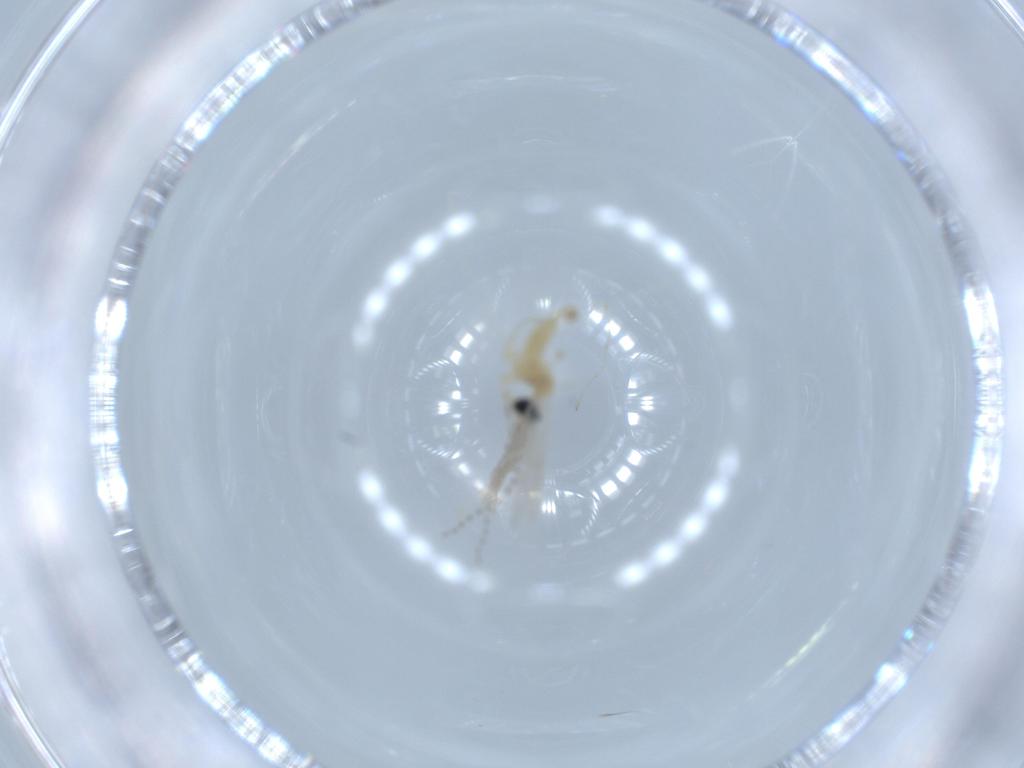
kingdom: Animalia
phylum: Arthropoda
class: Insecta
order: Diptera
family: Cecidomyiidae
